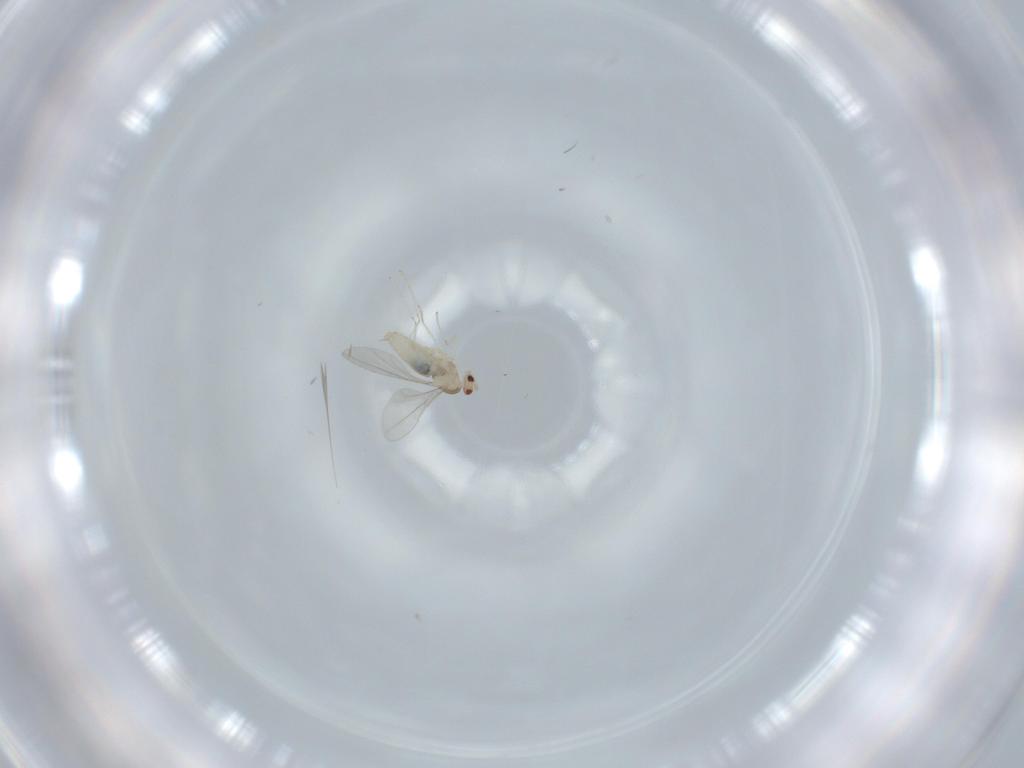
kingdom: Animalia
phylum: Arthropoda
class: Insecta
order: Diptera
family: Cecidomyiidae
